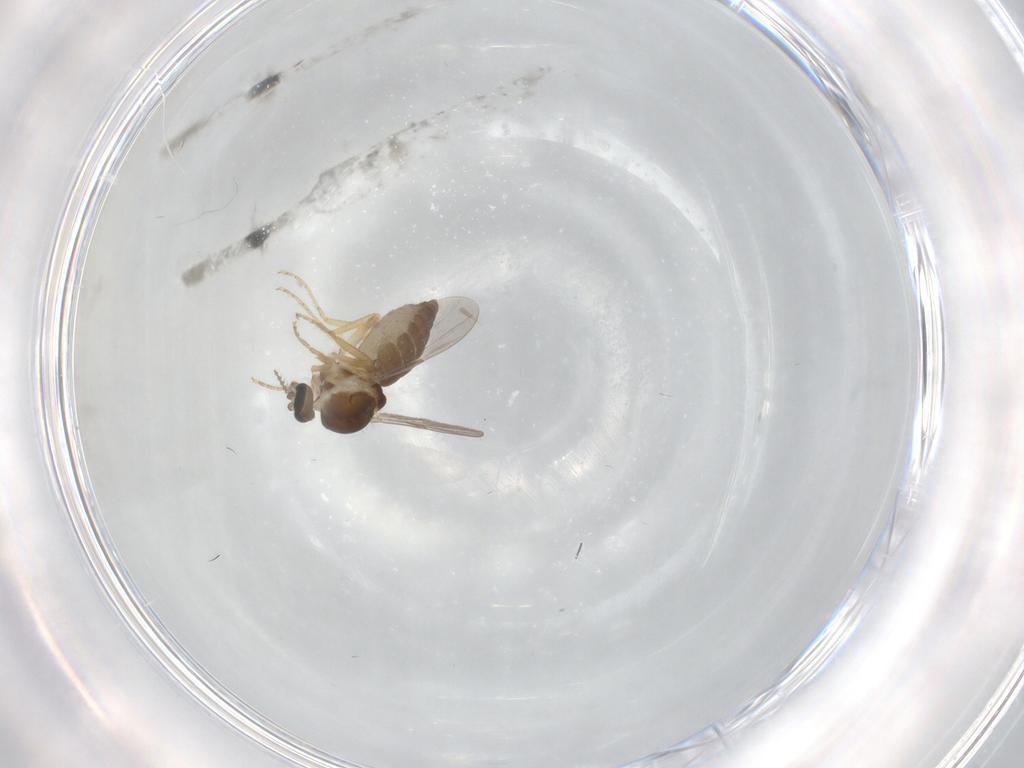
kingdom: Animalia
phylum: Arthropoda
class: Insecta
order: Diptera
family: Ceratopogonidae
